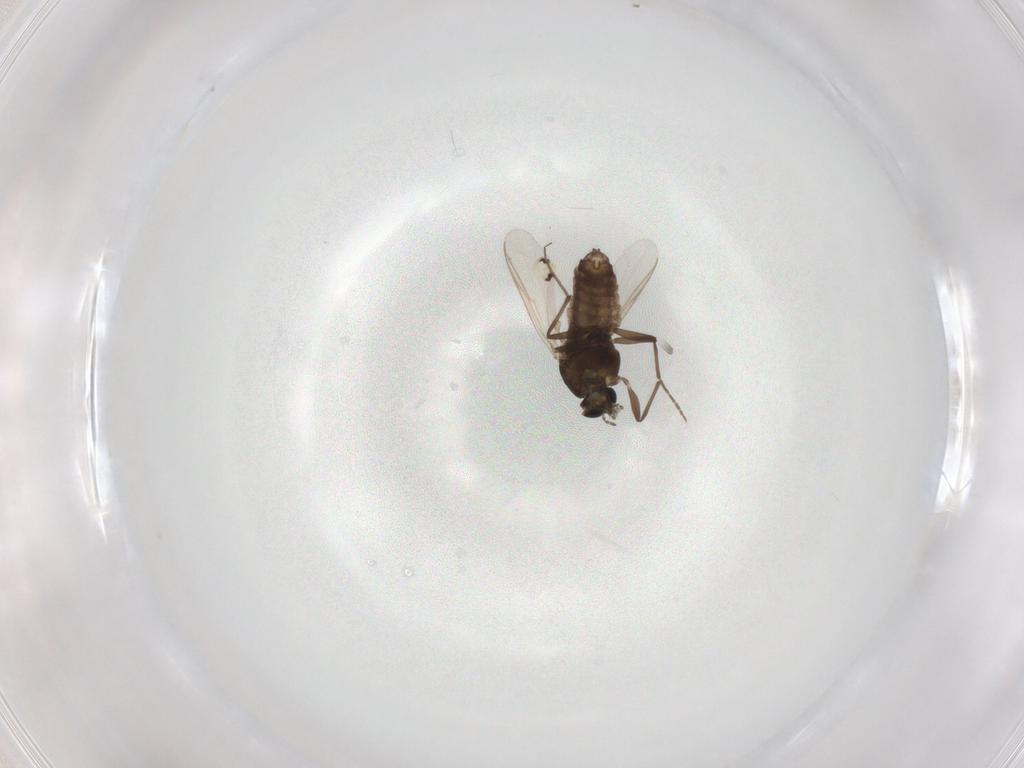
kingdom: Animalia
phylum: Arthropoda
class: Insecta
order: Diptera
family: Chironomidae
